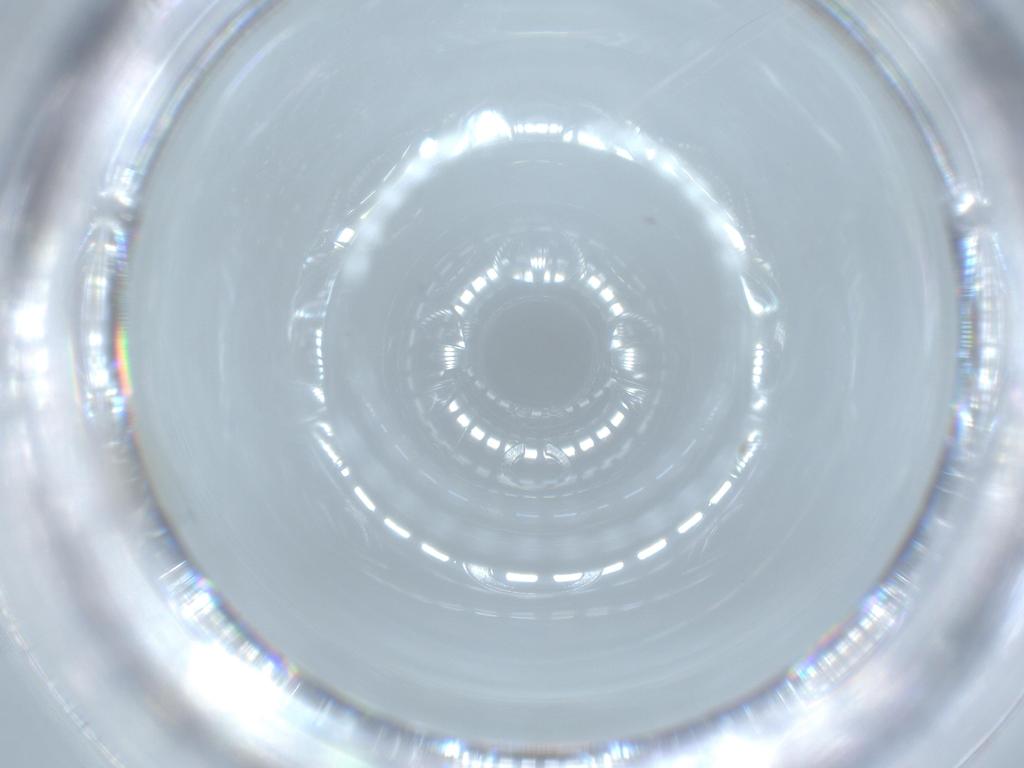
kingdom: Animalia
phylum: Arthropoda
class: Insecta
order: Diptera
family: Cecidomyiidae
